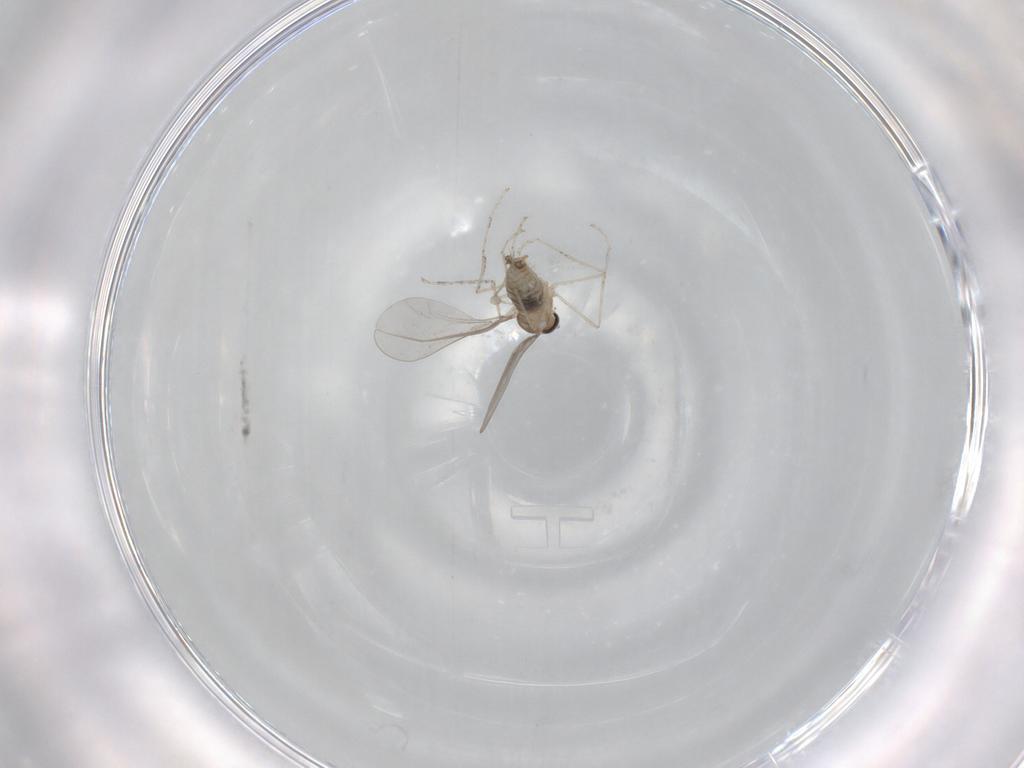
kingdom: Animalia
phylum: Arthropoda
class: Insecta
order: Diptera
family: Cecidomyiidae
